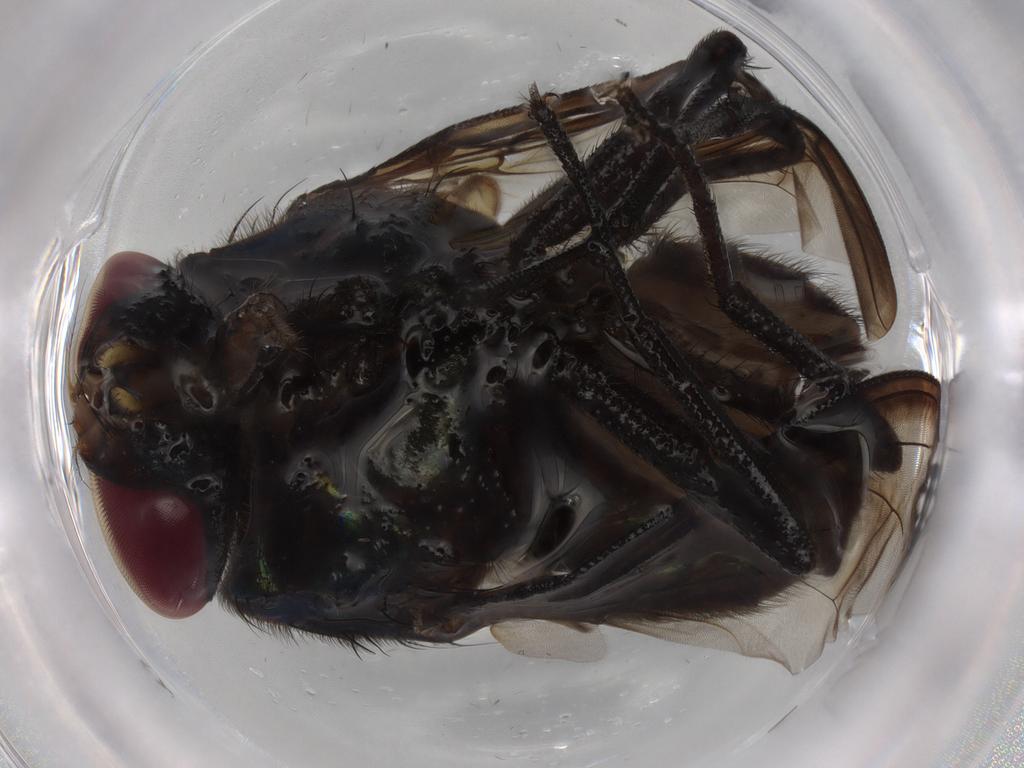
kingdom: Animalia
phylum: Arthropoda
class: Insecta
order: Diptera
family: Muscidae
